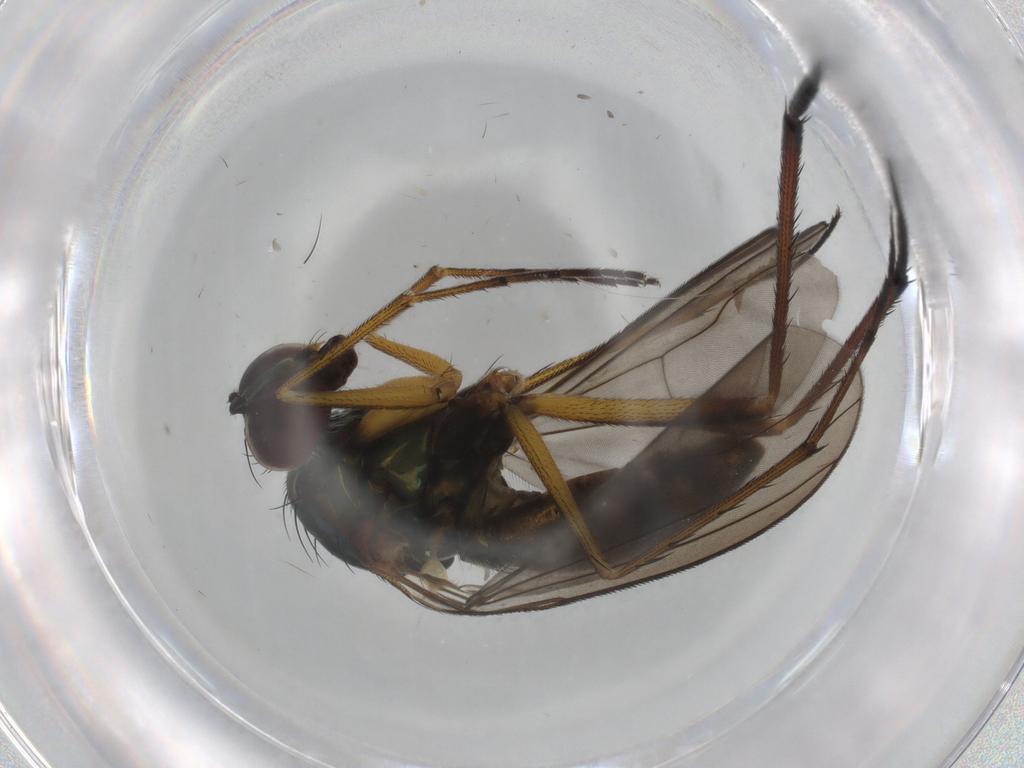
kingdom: Animalia
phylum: Arthropoda
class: Insecta
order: Diptera
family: Dolichopodidae
